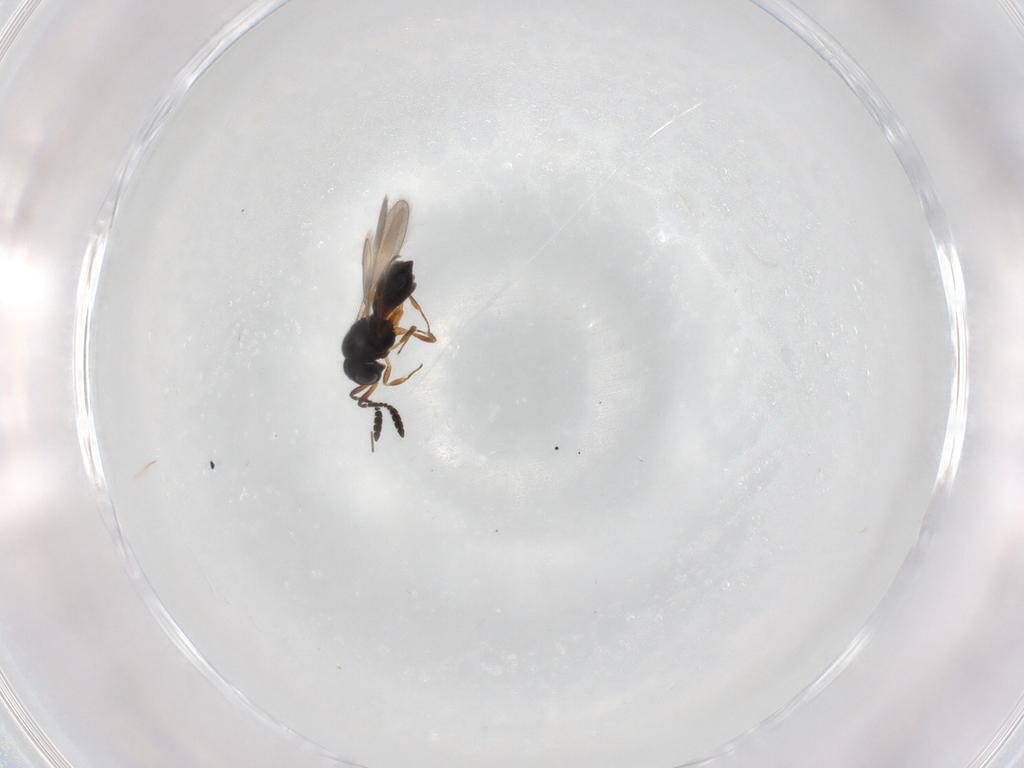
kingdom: Animalia
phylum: Arthropoda
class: Insecta
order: Hymenoptera
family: Scelionidae
